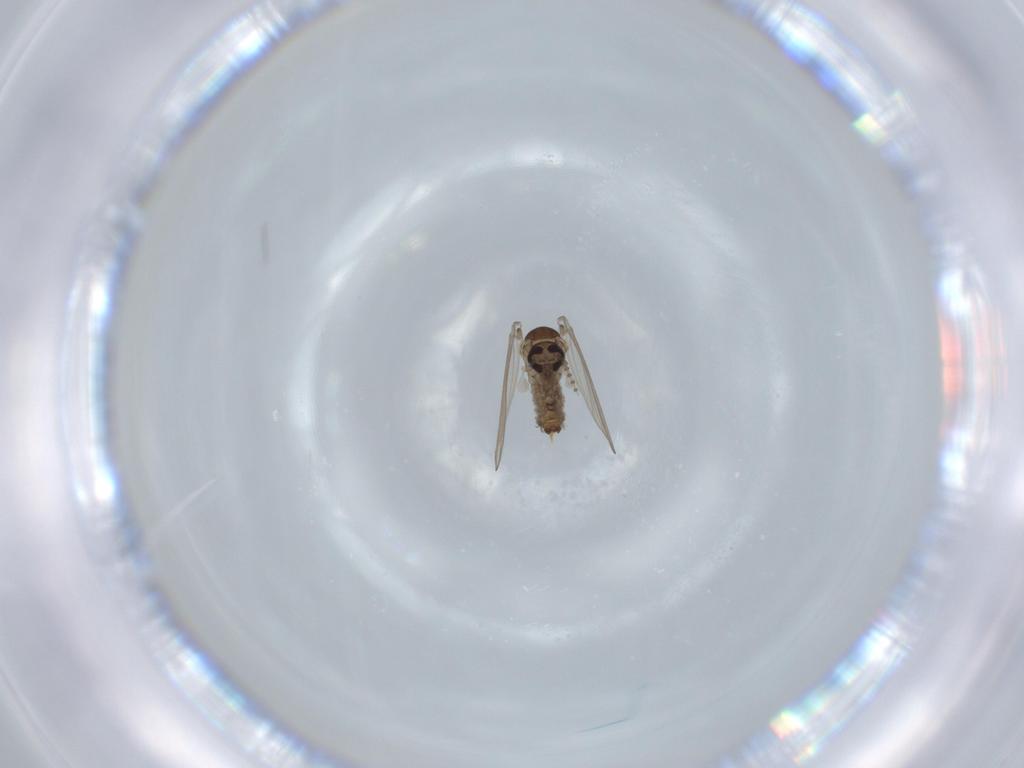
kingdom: Animalia
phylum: Arthropoda
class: Insecta
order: Diptera
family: Psychodidae
